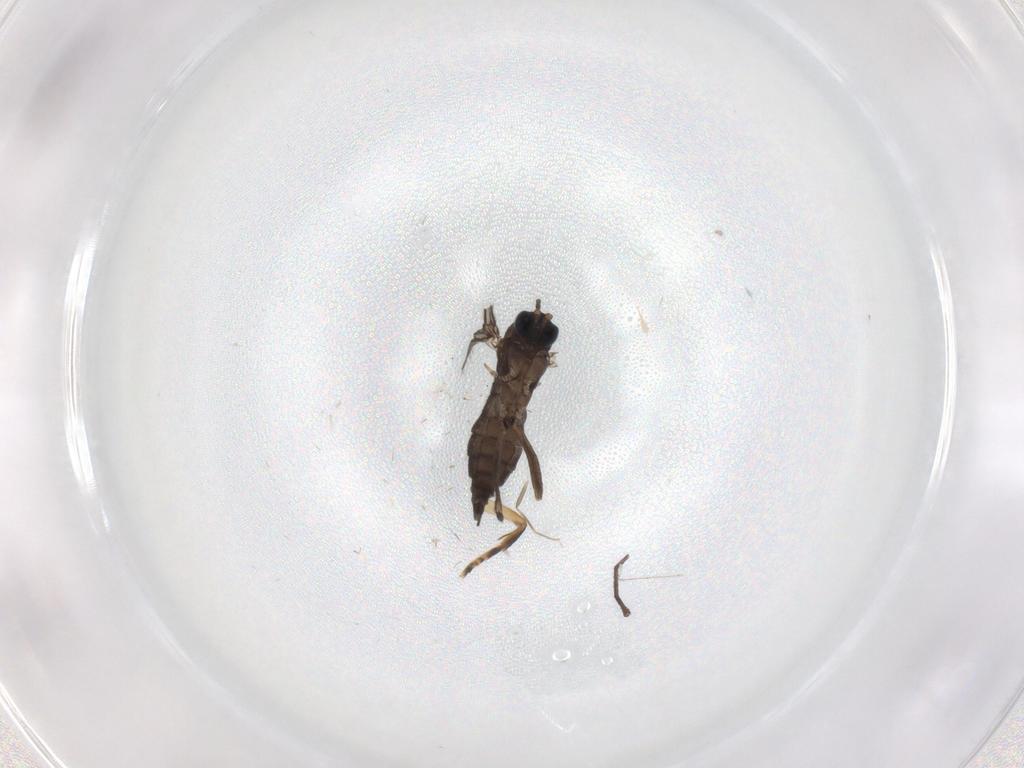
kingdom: Animalia
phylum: Arthropoda
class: Insecta
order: Diptera
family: Sciaridae
